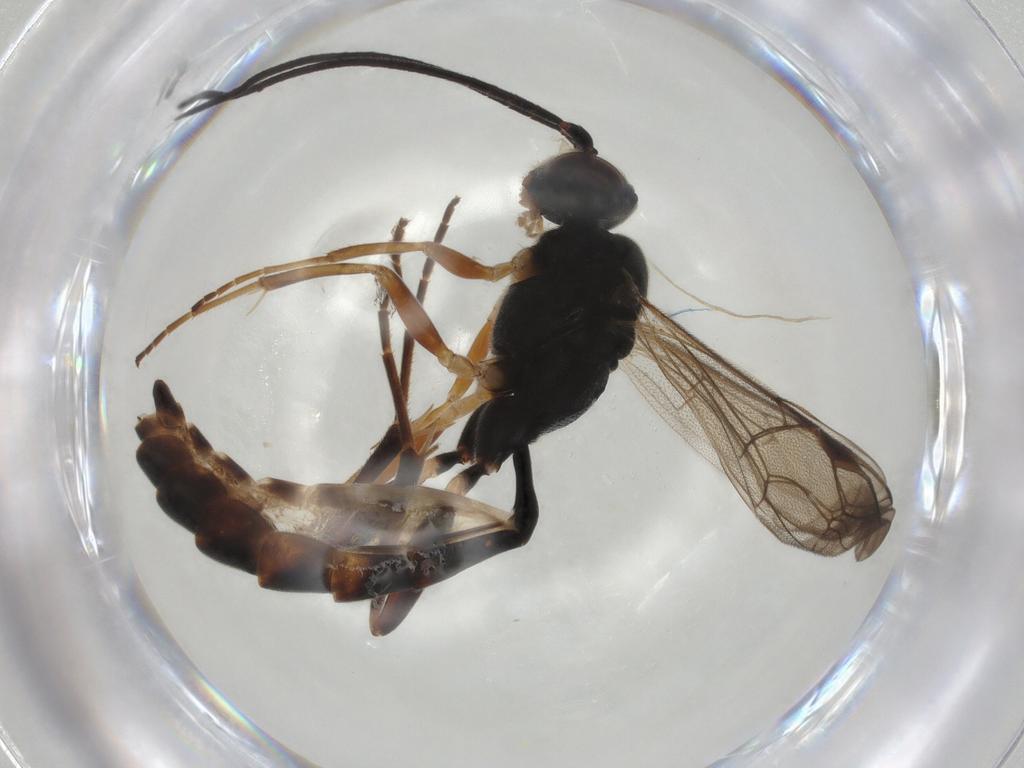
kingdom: Animalia
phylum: Arthropoda
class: Insecta
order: Hymenoptera
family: Ichneumonidae
